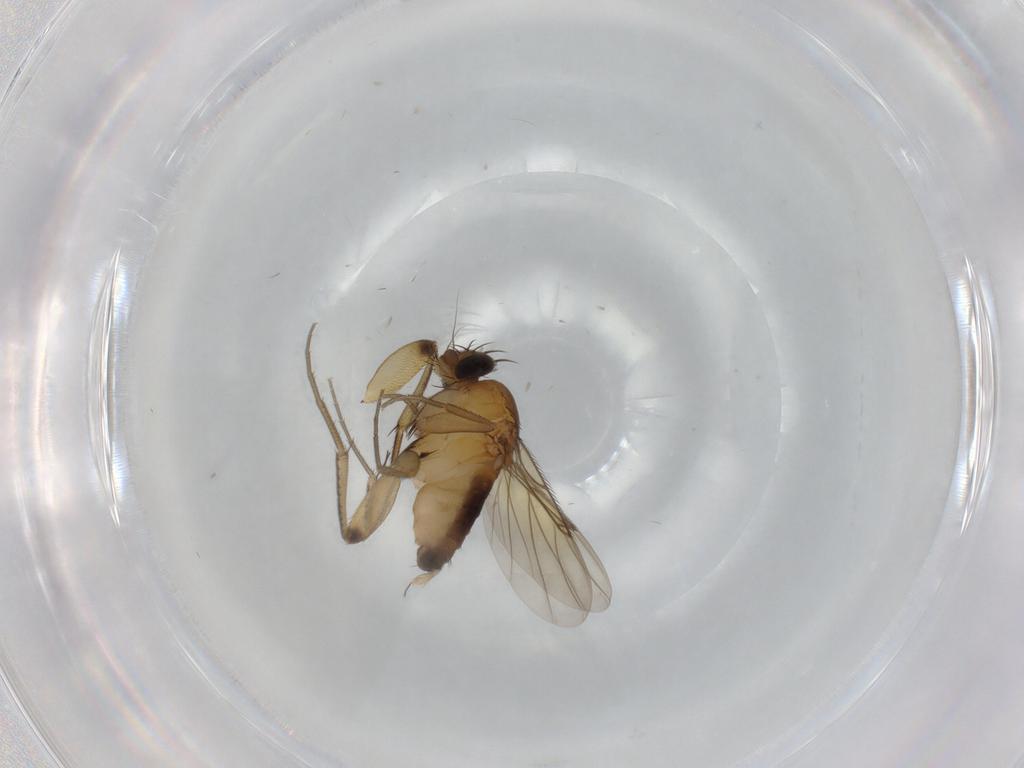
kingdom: Animalia
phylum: Arthropoda
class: Insecta
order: Diptera
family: Phoridae
